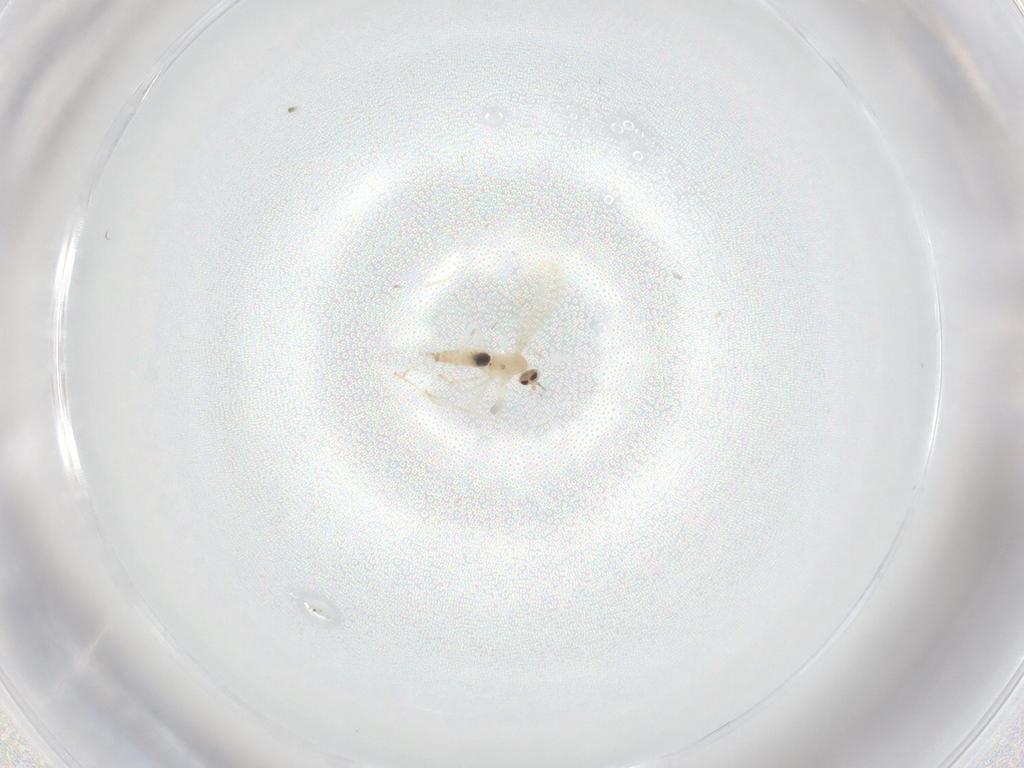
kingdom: Animalia
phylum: Arthropoda
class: Insecta
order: Diptera
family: Cecidomyiidae
